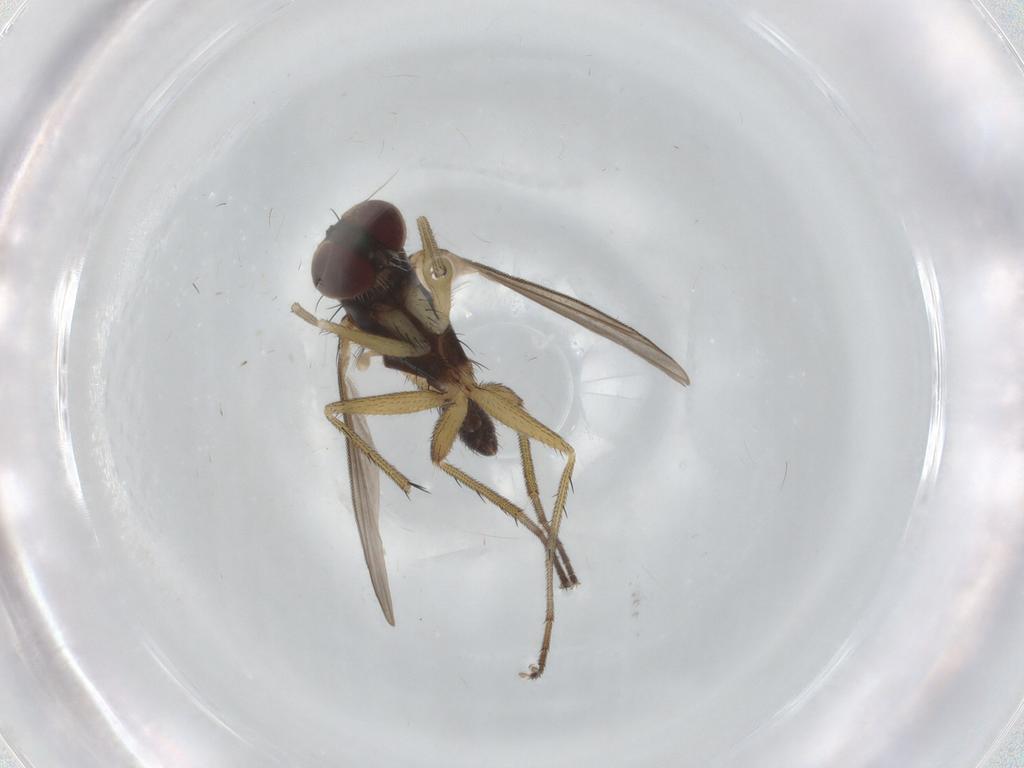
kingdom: Animalia
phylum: Arthropoda
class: Insecta
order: Diptera
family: Dolichopodidae
